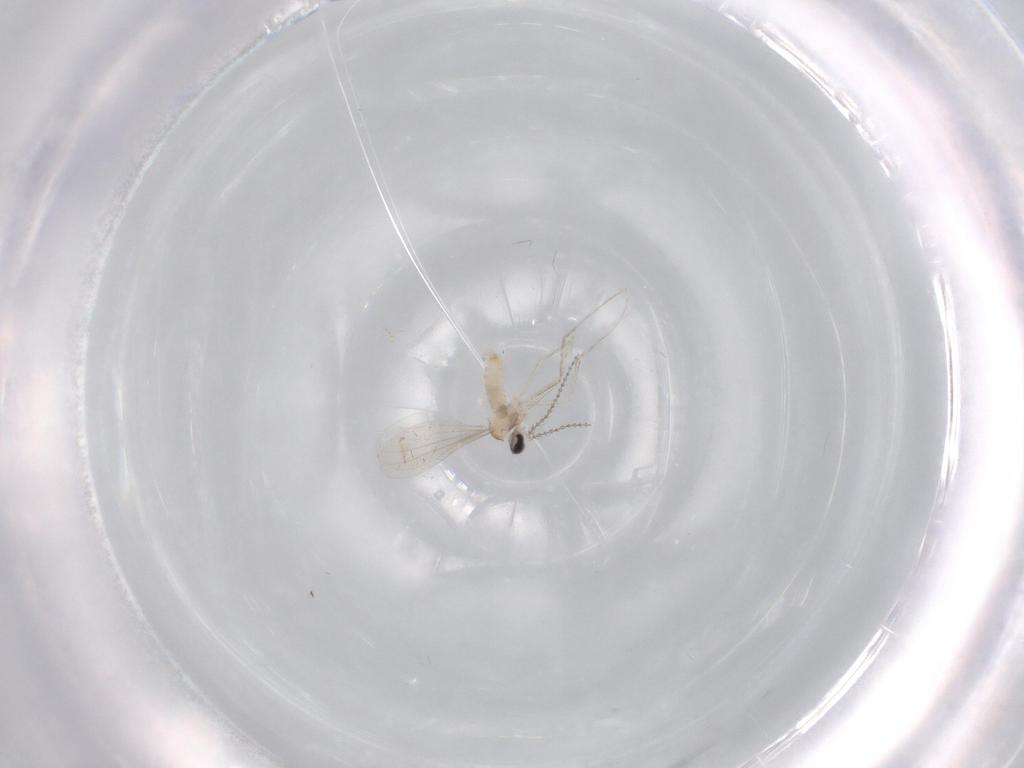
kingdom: Animalia
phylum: Arthropoda
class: Insecta
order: Diptera
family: Cecidomyiidae
